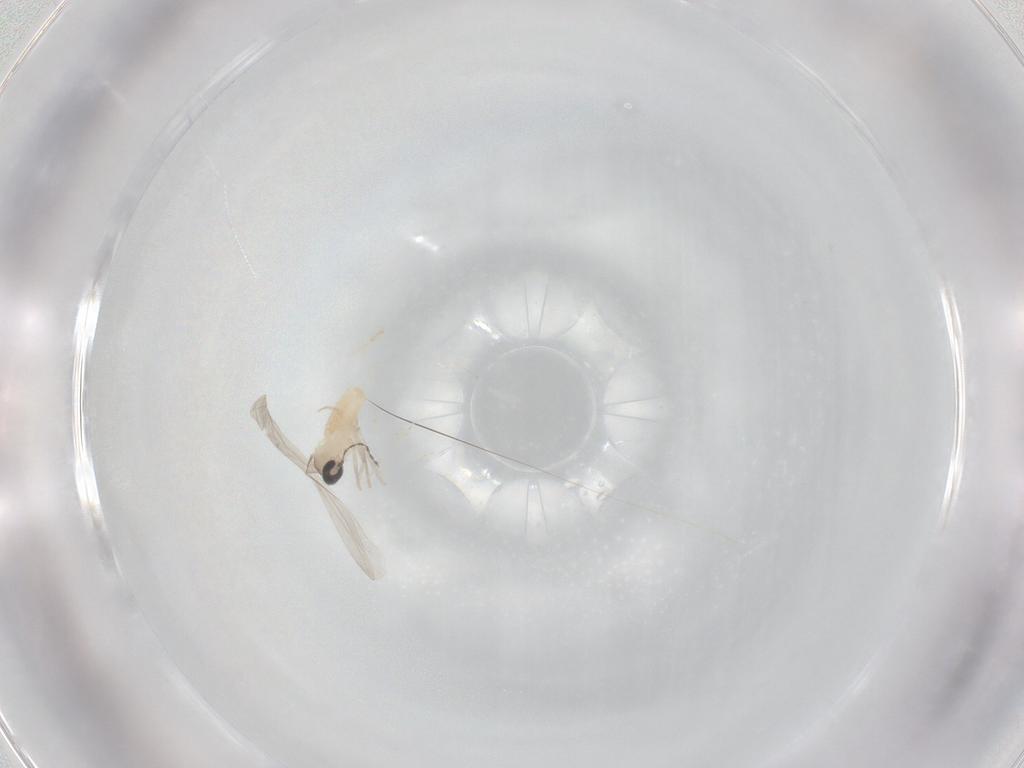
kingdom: Animalia
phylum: Arthropoda
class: Insecta
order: Diptera
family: Cecidomyiidae
